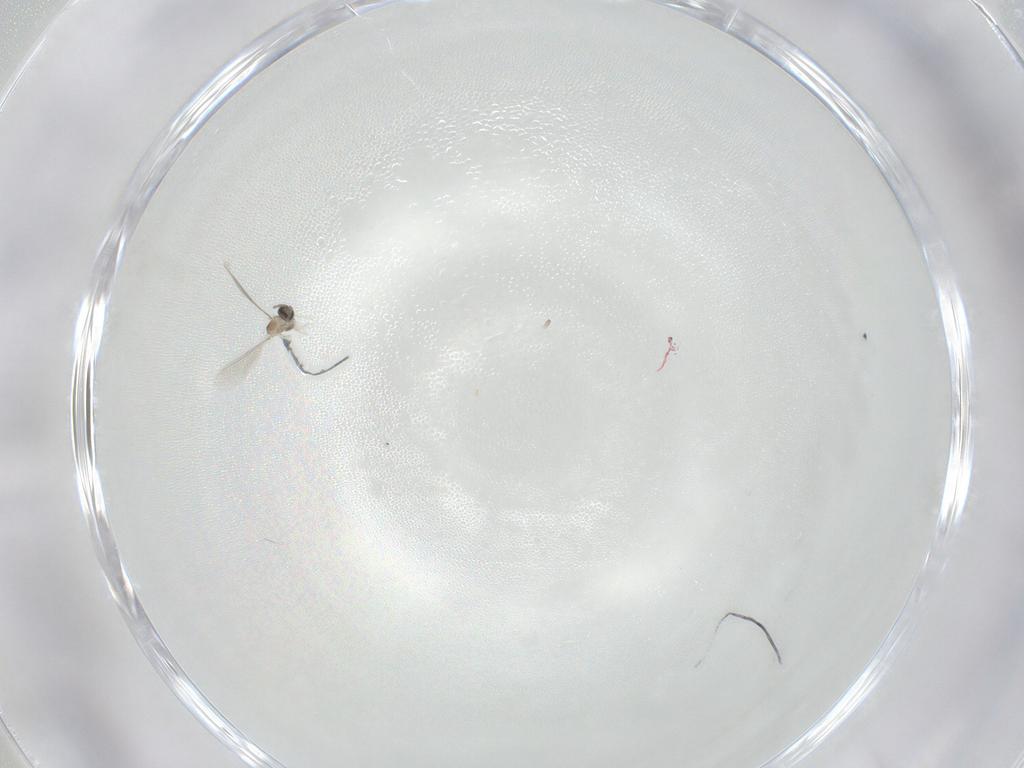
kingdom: Animalia
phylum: Arthropoda
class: Insecta
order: Diptera
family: Cecidomyiidae
